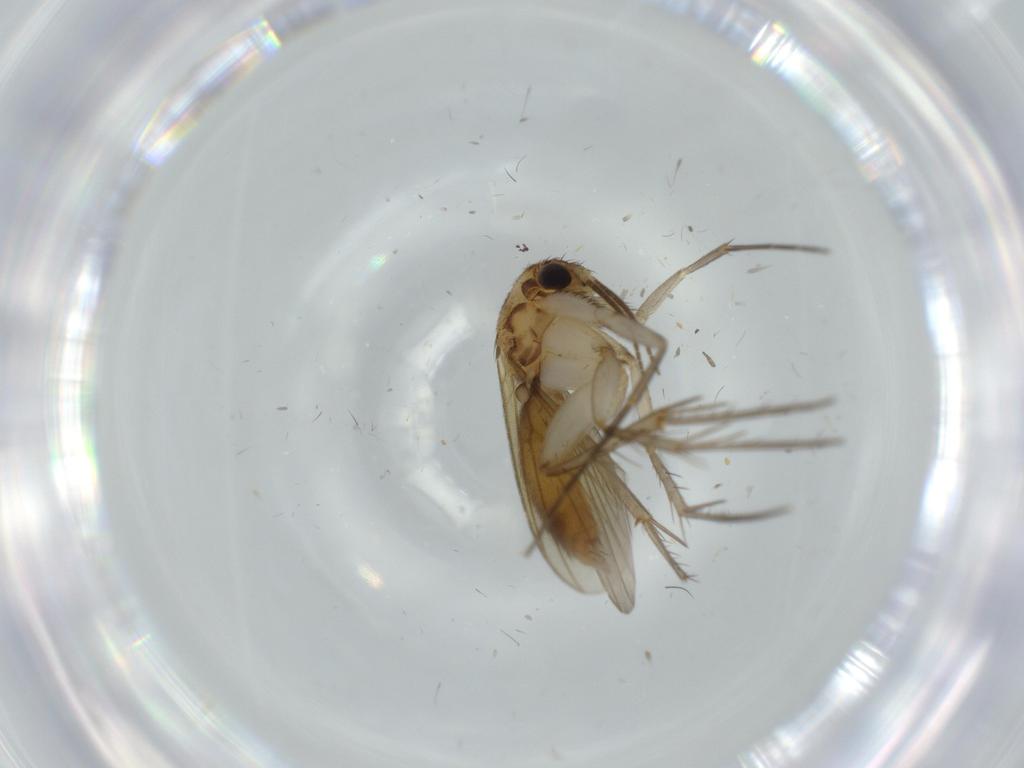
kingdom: Animalia
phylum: Arthropoda
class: Insecta
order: Diptera
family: Sciaridae
